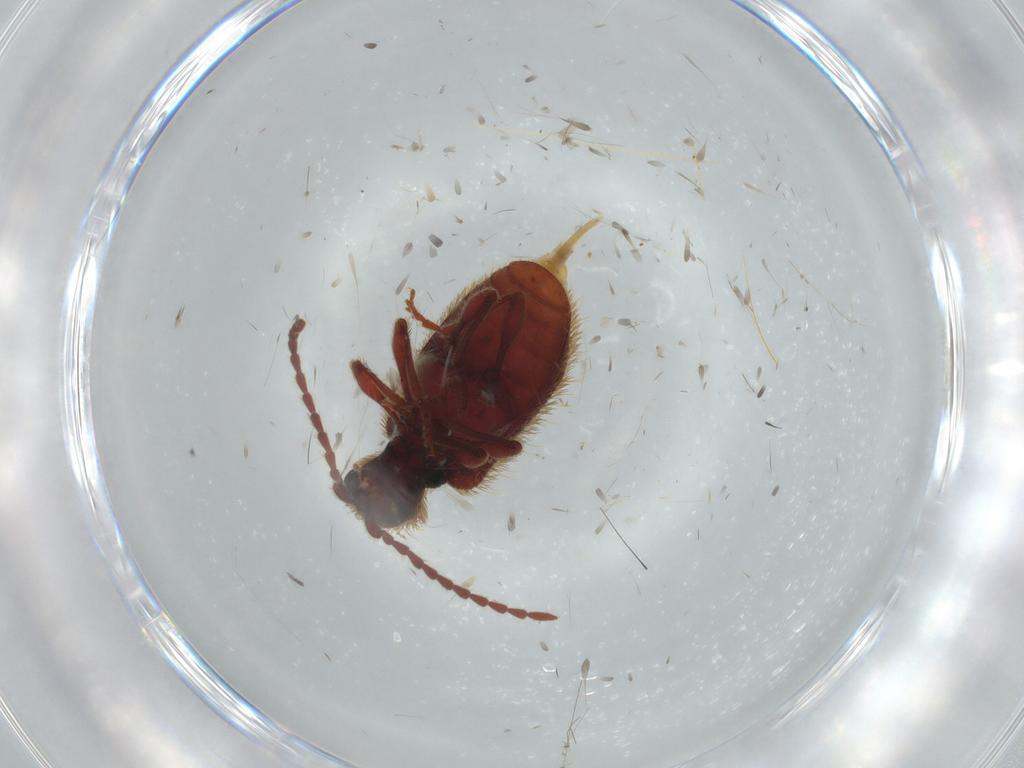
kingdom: Animalia
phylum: Arthropoda
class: Insecta
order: Coleoptera
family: Ptinidae
